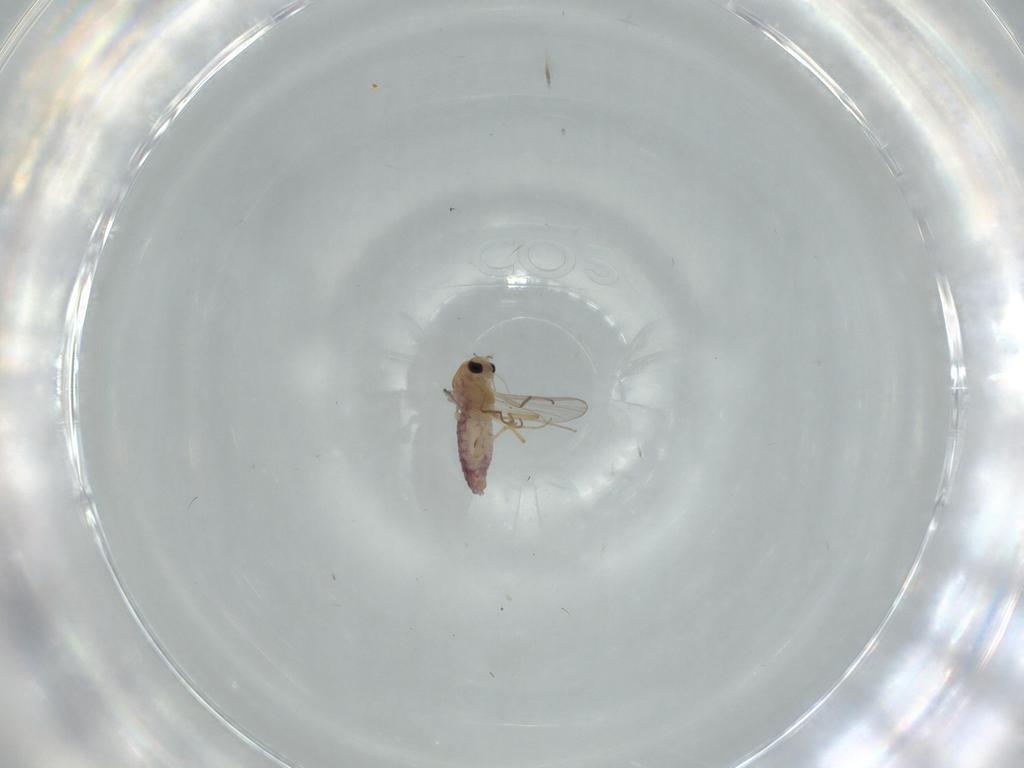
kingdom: Animalia
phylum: Arthropoda
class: Insecta
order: Diptera
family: Chironomidae
